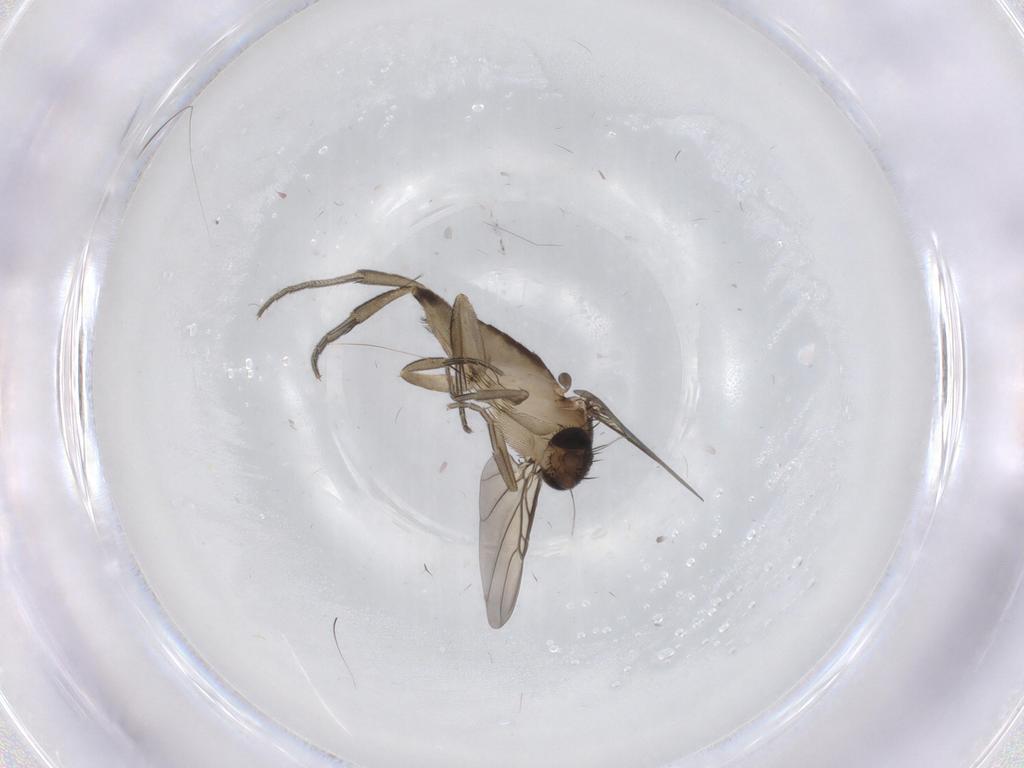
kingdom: Animalia
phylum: Arthropoda
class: Insecta
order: Diptera
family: Phoridae
